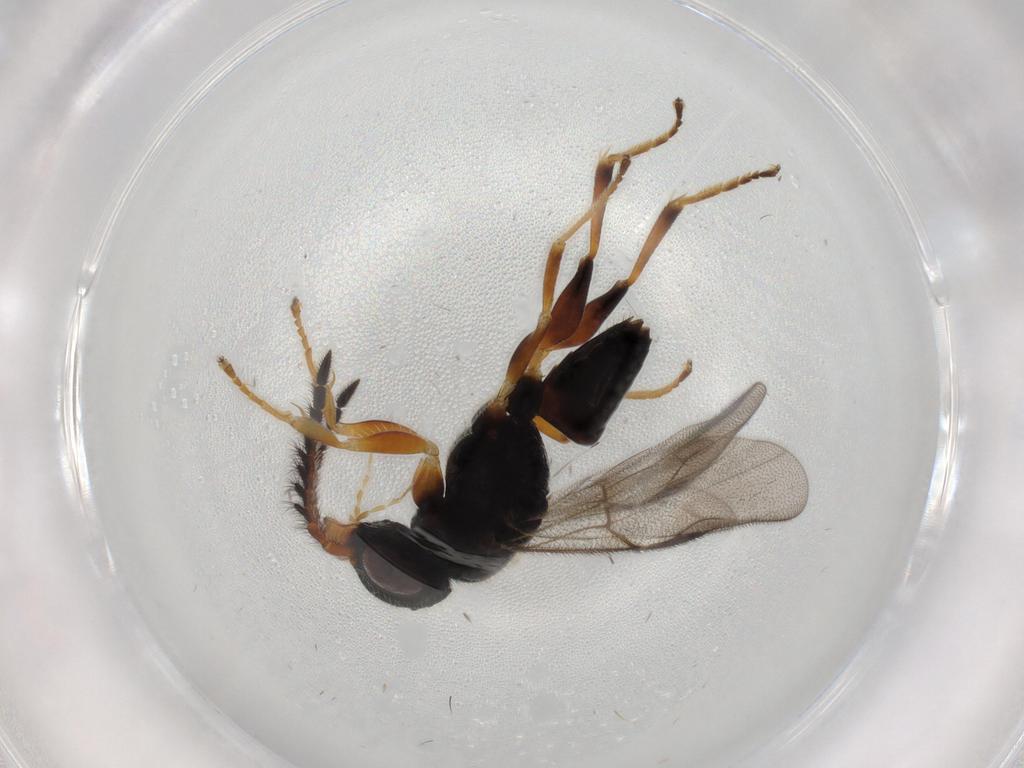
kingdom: Animalia
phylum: Arthropoda
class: Insecta
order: Hymenoptera
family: Dryinidae
